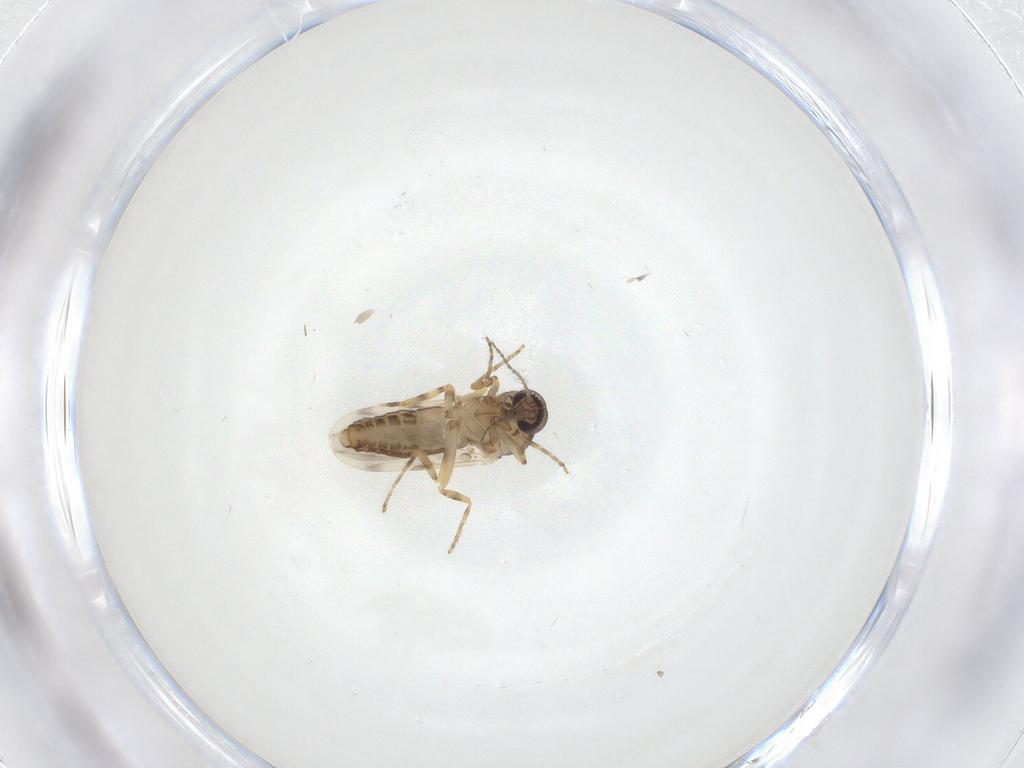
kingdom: Animalia
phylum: Arthropoda
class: Insecta
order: Diptera
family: Ceratopogonidae
